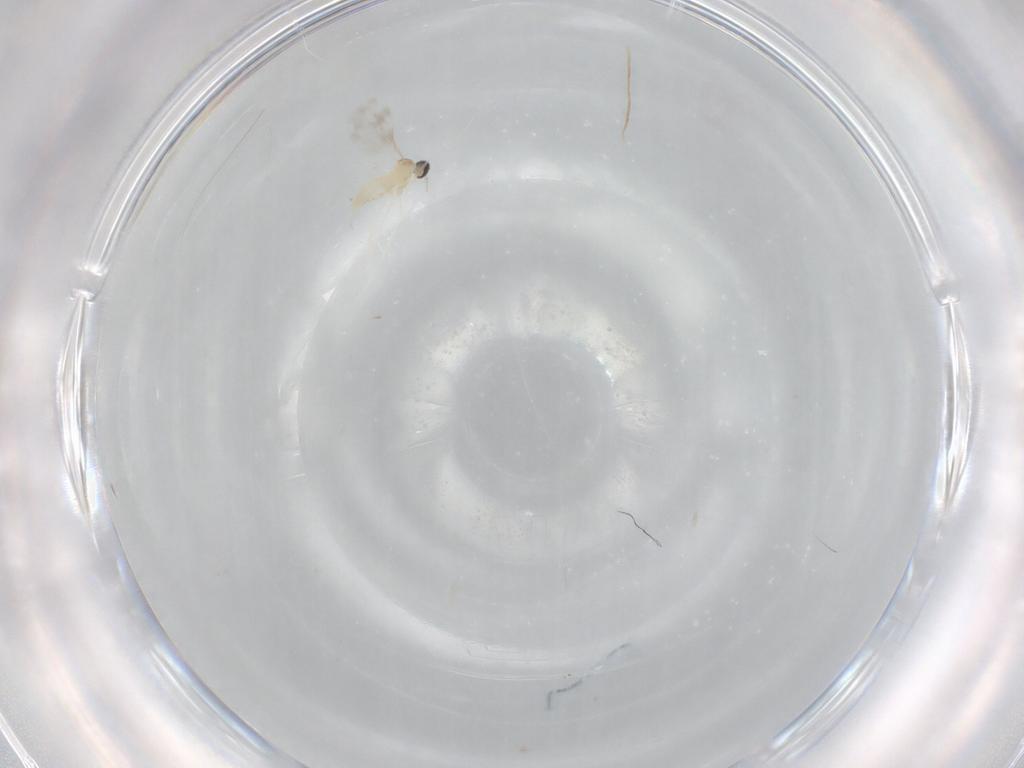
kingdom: Animalia
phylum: Arthropoda
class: Insecta
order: Diptera
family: Cecidomyiidae
